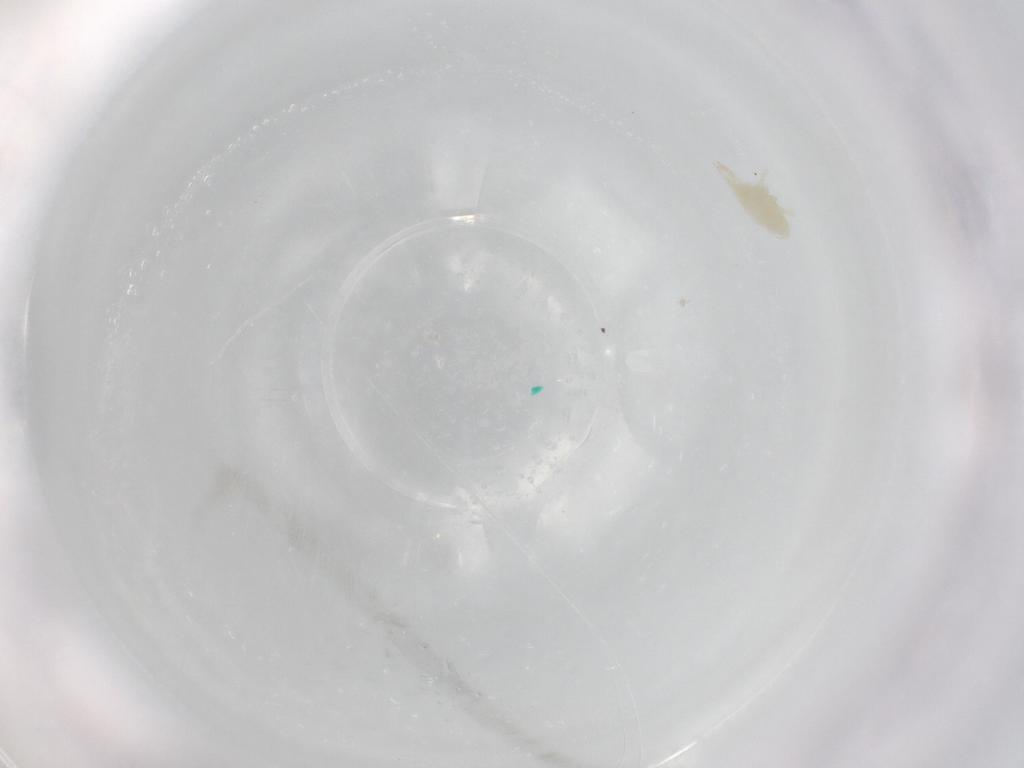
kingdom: Animalia
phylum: Arthropoda
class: Arachnida
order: Trombidiformes
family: Bdellidae
